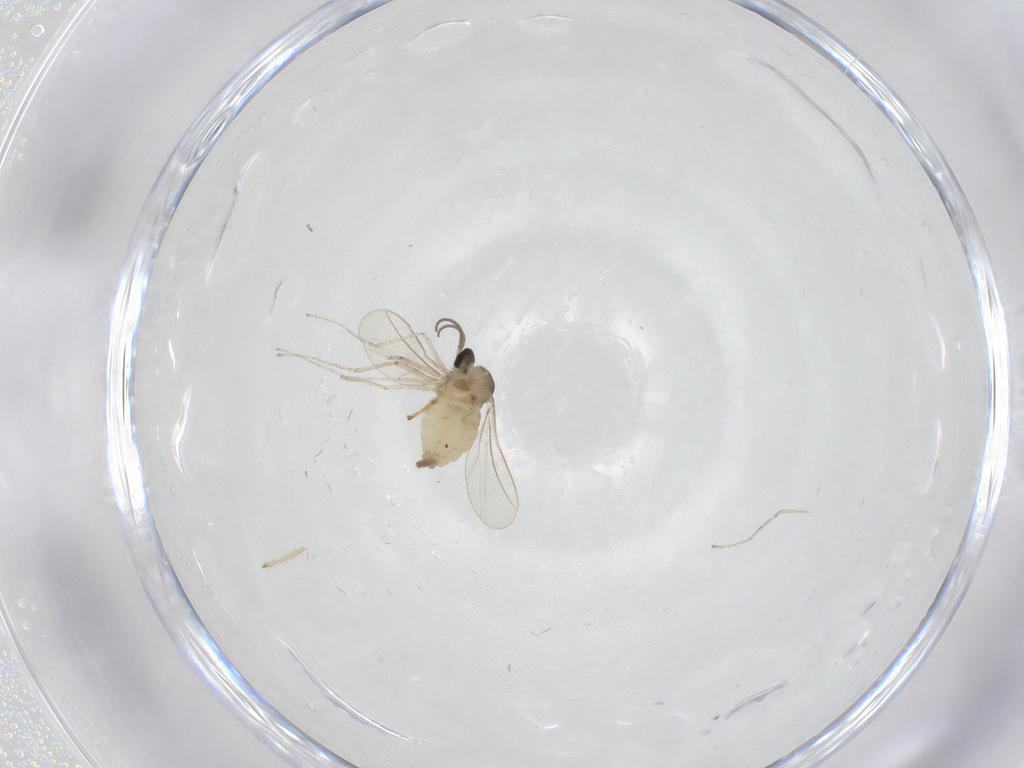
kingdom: Animalia
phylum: Arthropoda
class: Insecta
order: Diptera
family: Cecidomyiidae
